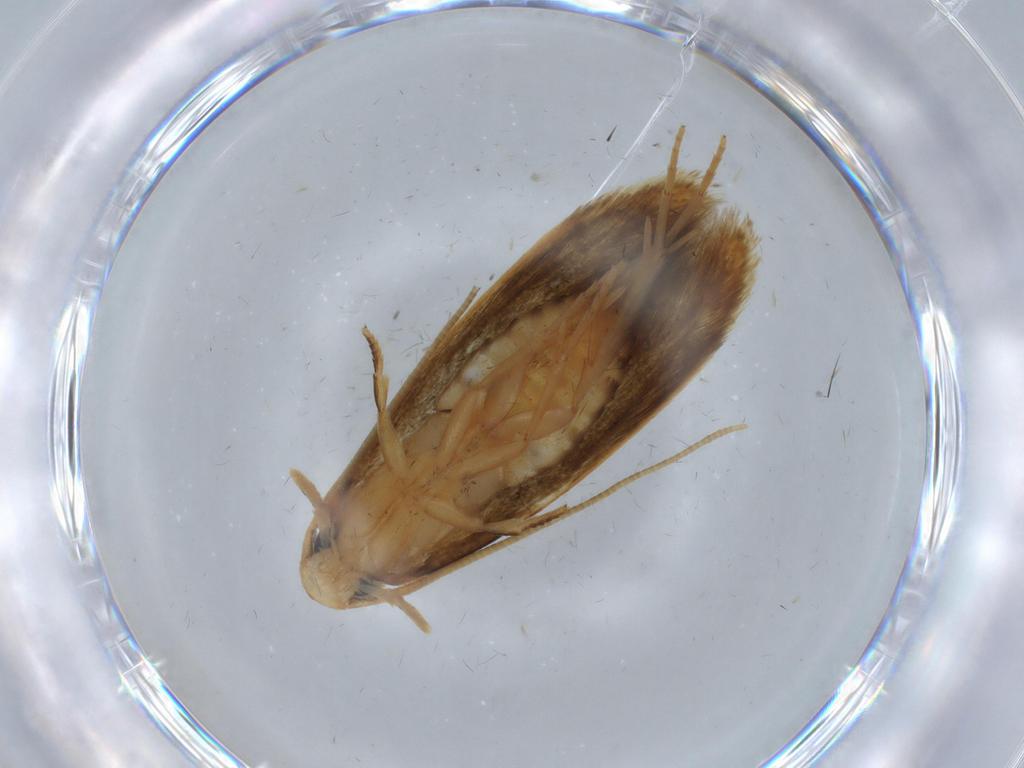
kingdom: Animalia
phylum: Arthropoda
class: Insecta
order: Lepidoptera
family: Tineidae
